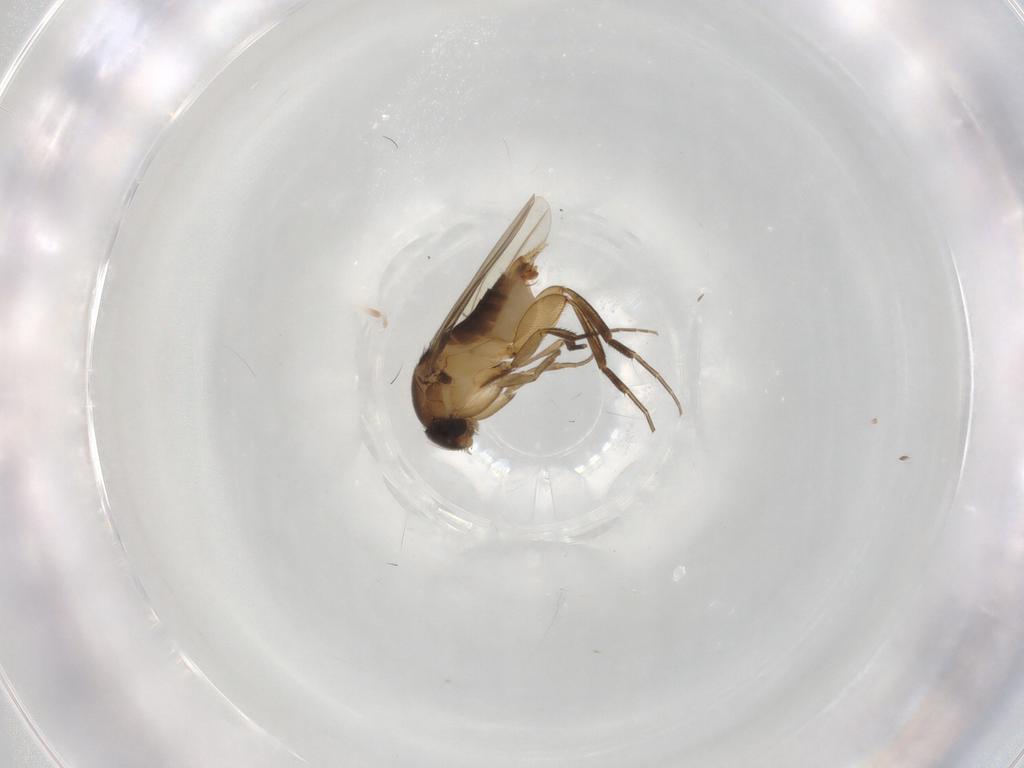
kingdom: Animalia
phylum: Arthropoda
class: Insecta
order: Diptera
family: Phoridae
